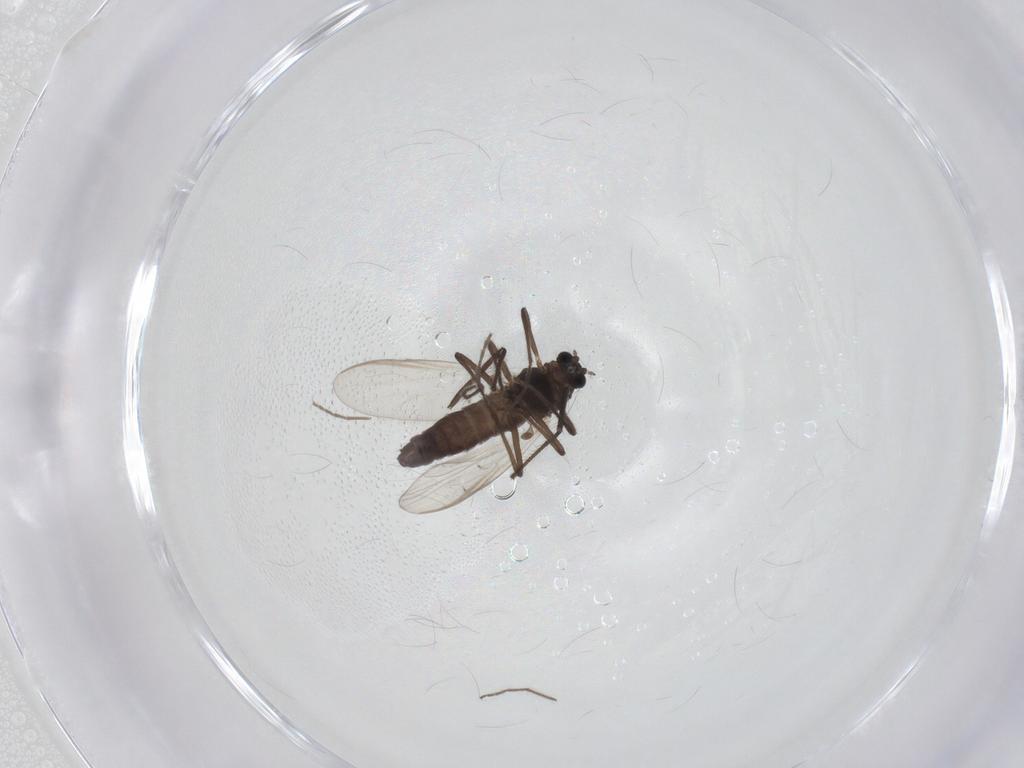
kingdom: Animalia
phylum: Arthropoda
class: Insecta
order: Diptera
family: Chironomidae
